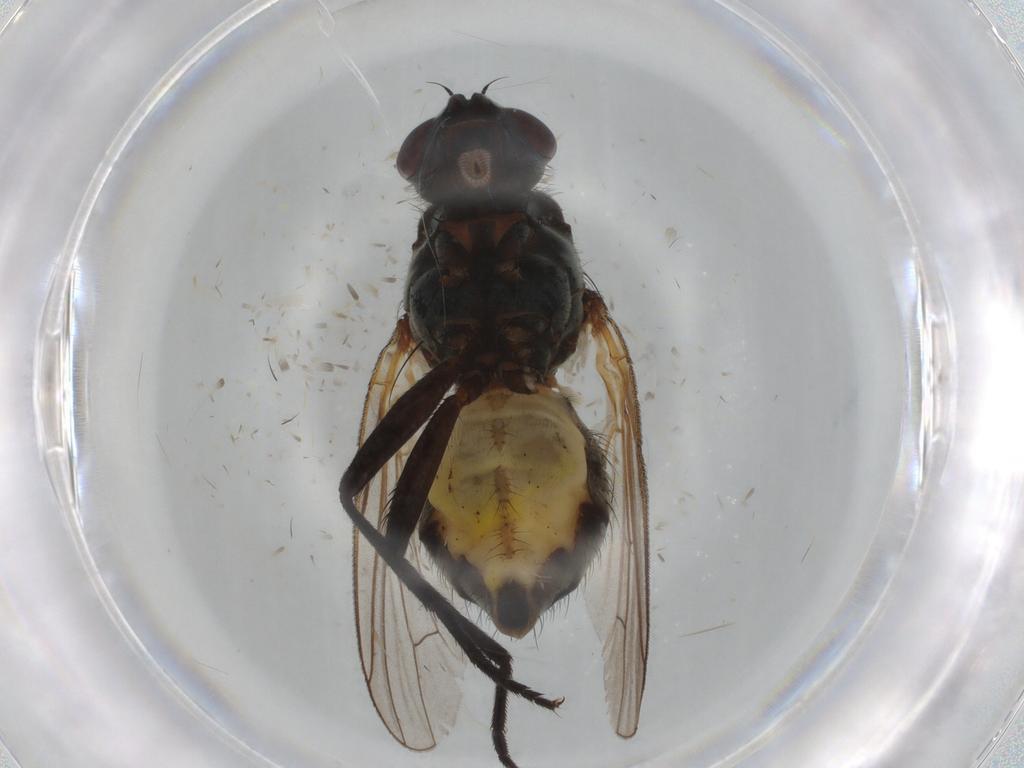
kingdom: Animalia
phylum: Arthropoda
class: Insecta
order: Diptera
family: Anthomyiidae
